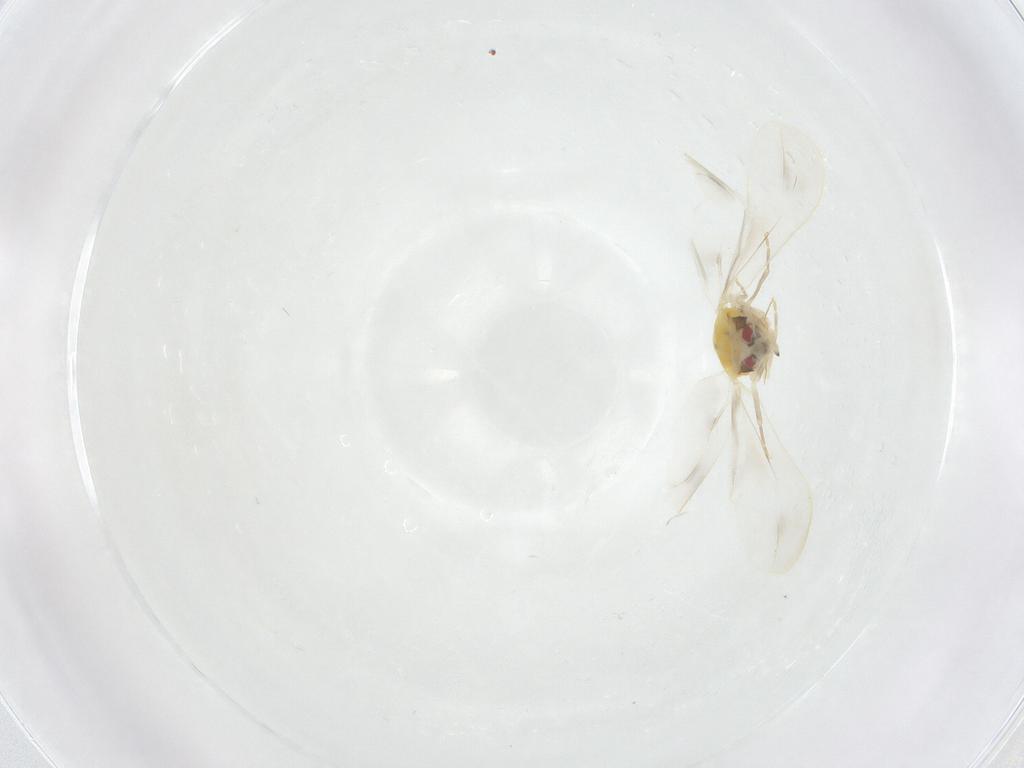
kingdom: Animalia
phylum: Arthropoda
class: Insecta
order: Hemiptera
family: Aleyrodidae
